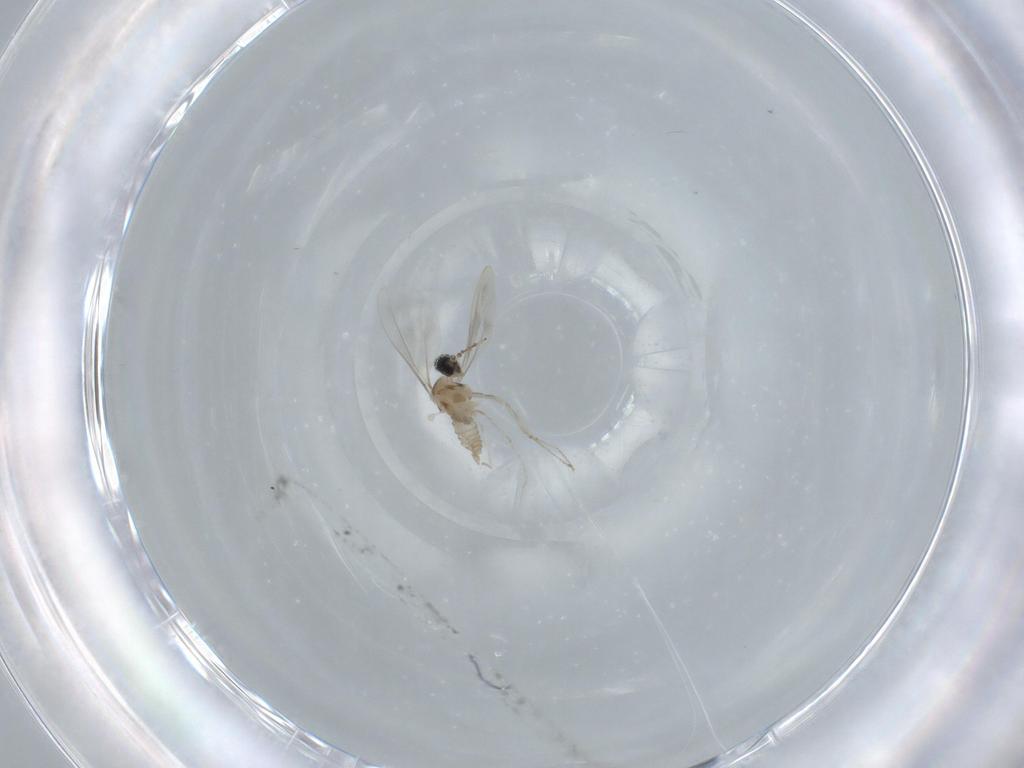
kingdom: Animalia
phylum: Arthropoda
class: Insecta
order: Diptera
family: Cecidomyiidae
